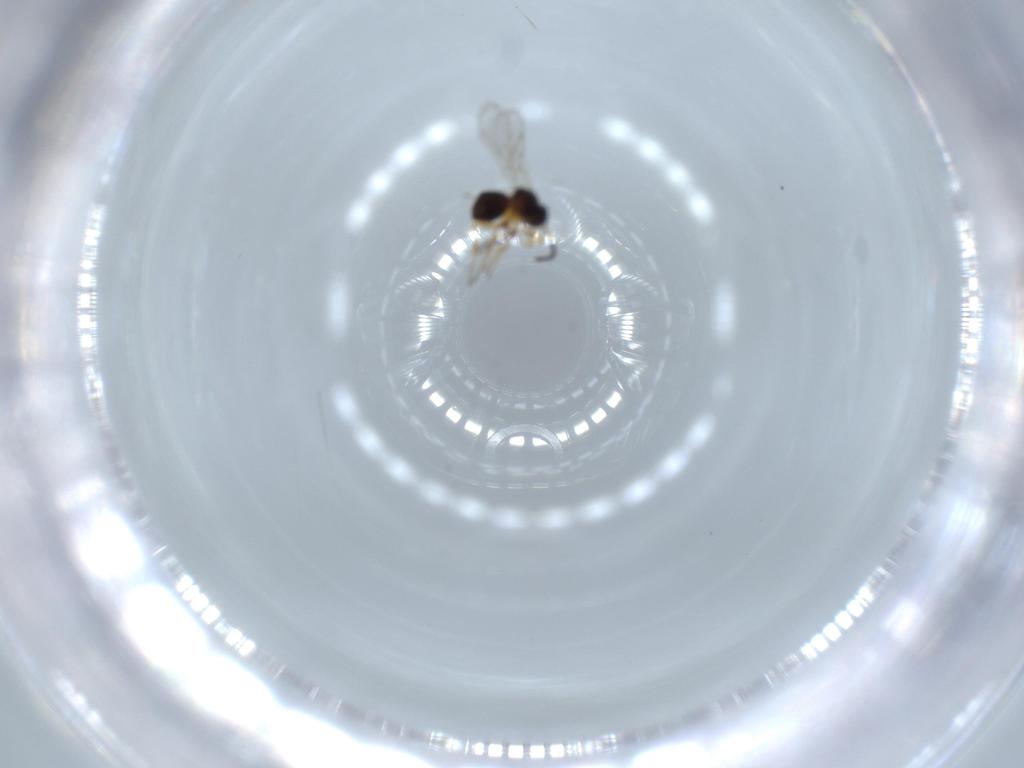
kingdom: Animalia
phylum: Arthropoda
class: Insecta
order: Hymenoptera
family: Figitidae
